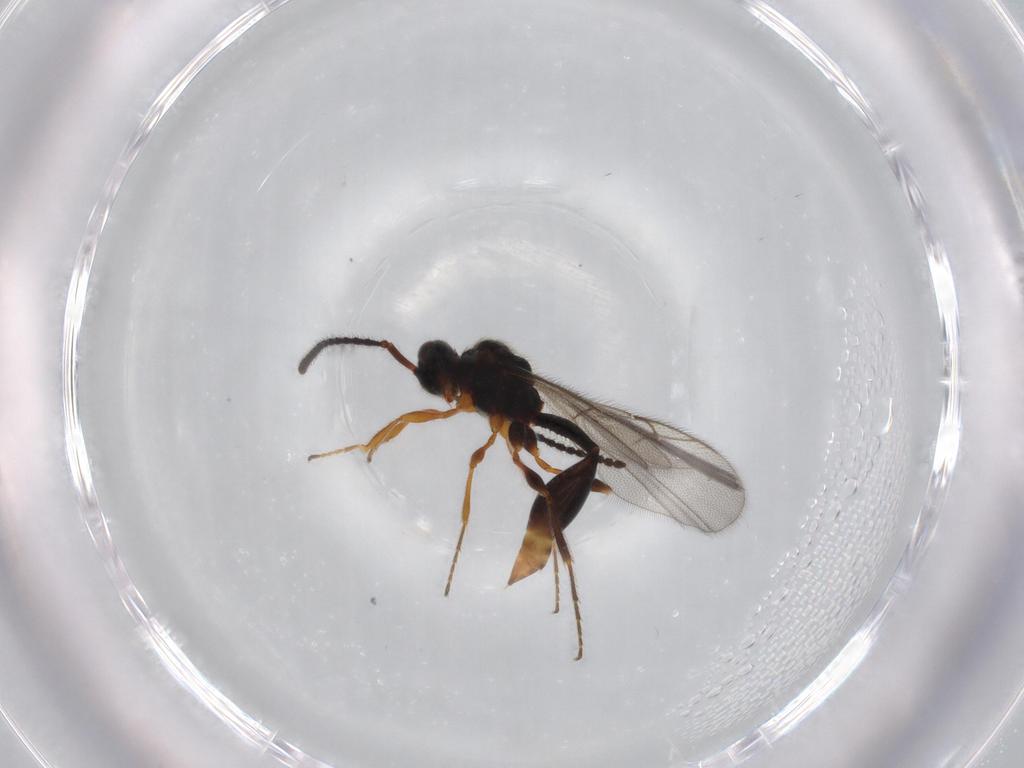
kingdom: Animalia
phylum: Arthropoda
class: Insecta
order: Hymenoptera
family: Diapriidae
